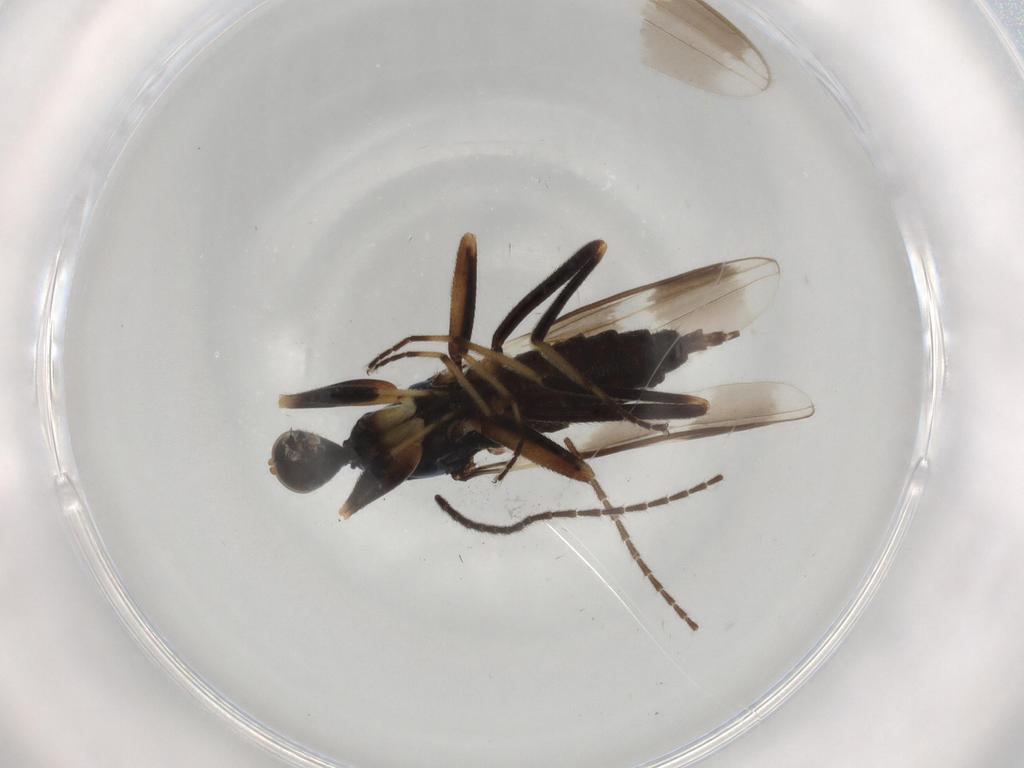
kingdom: Animalia
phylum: Arthropoda
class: Insecta
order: Diptera
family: Hybotidae
